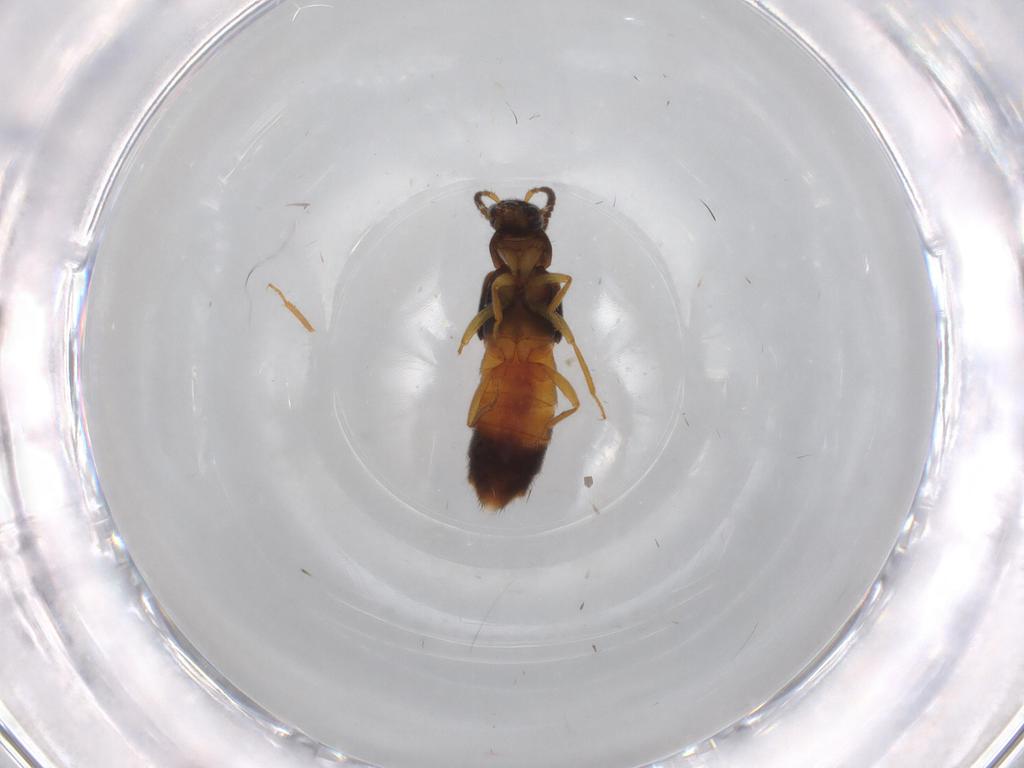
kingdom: Animalia
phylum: Arthropoda
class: Insecta
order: Coleoptera
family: Staphylinidae
